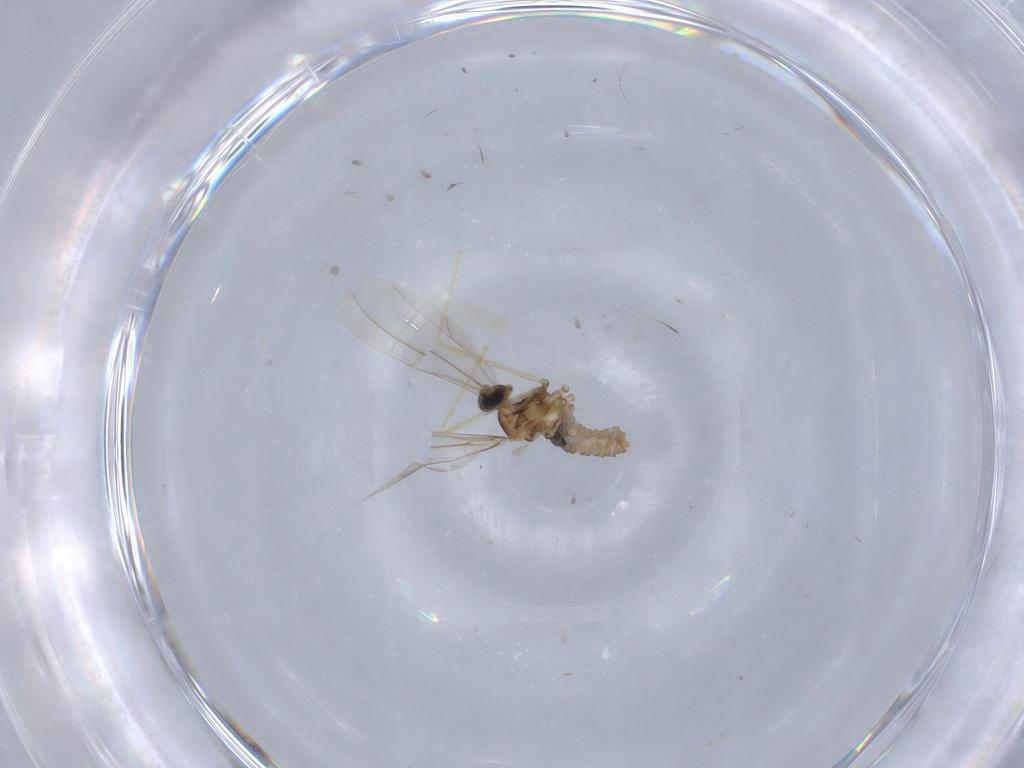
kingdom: Animalia
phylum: Arthropoda
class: Insecta
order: Diptera
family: Cecidomyiidae
